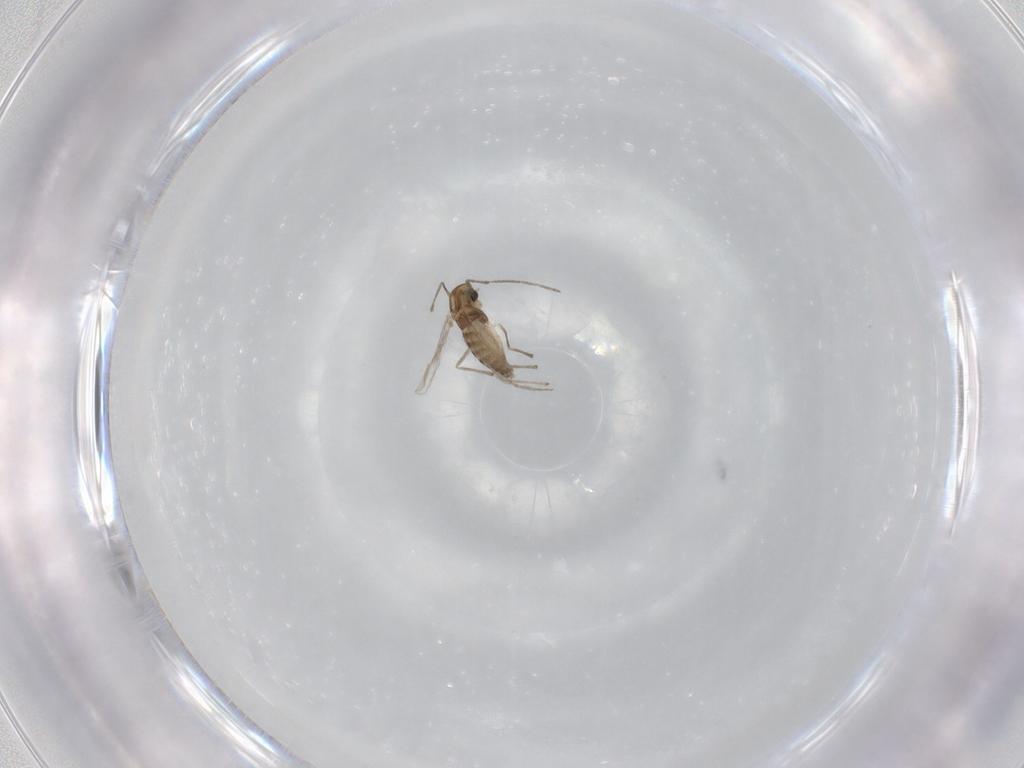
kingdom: Animalia
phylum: Arthropoda
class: Insecta
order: Diptera
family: Chironomidae
